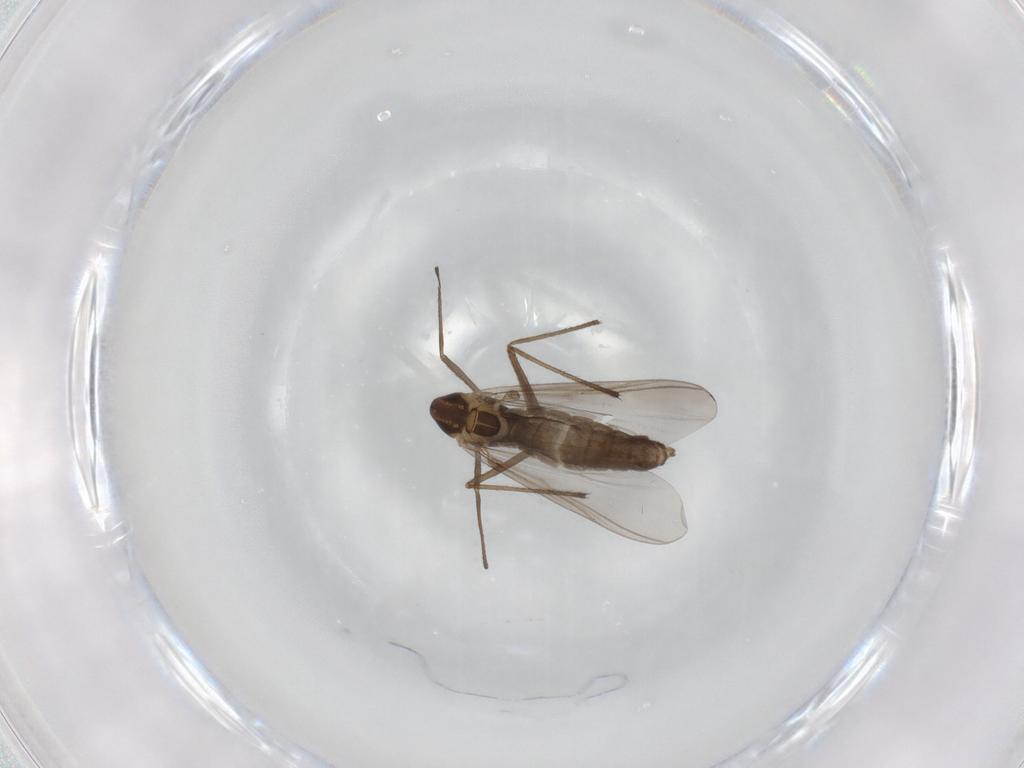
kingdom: Animalia
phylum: Arthropoda
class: Insecta
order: Diptera
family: Chironomidae
